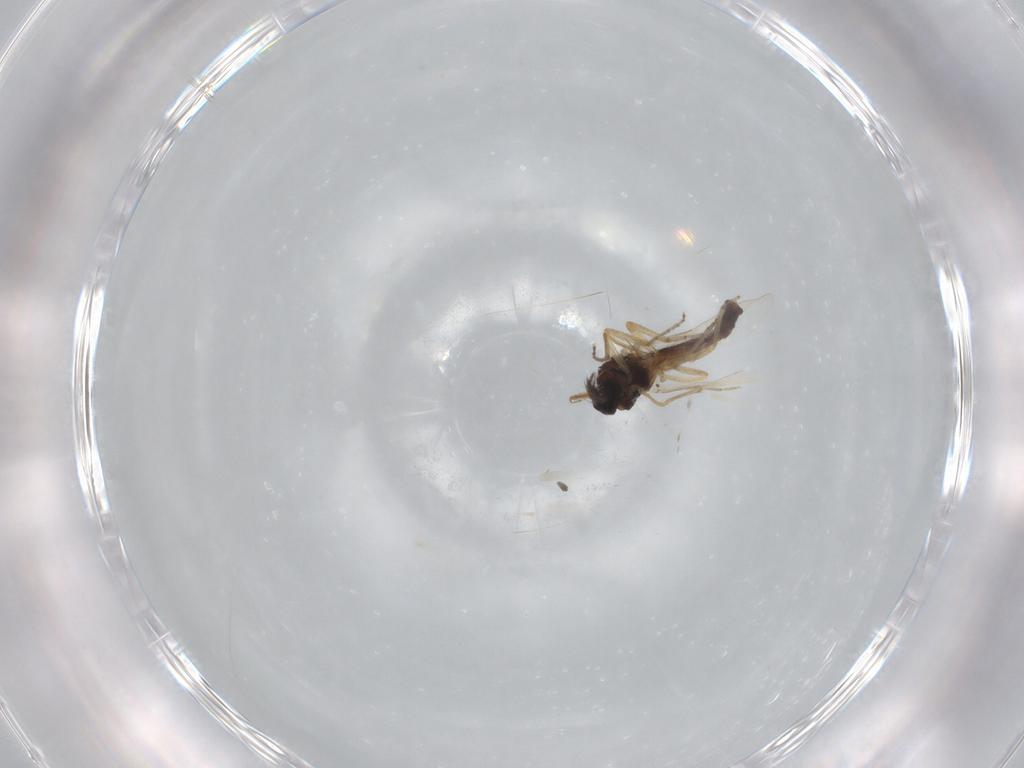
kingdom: Animalia
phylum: Arthropoda
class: Insecta
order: Diptera
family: Ceratopogonidae
